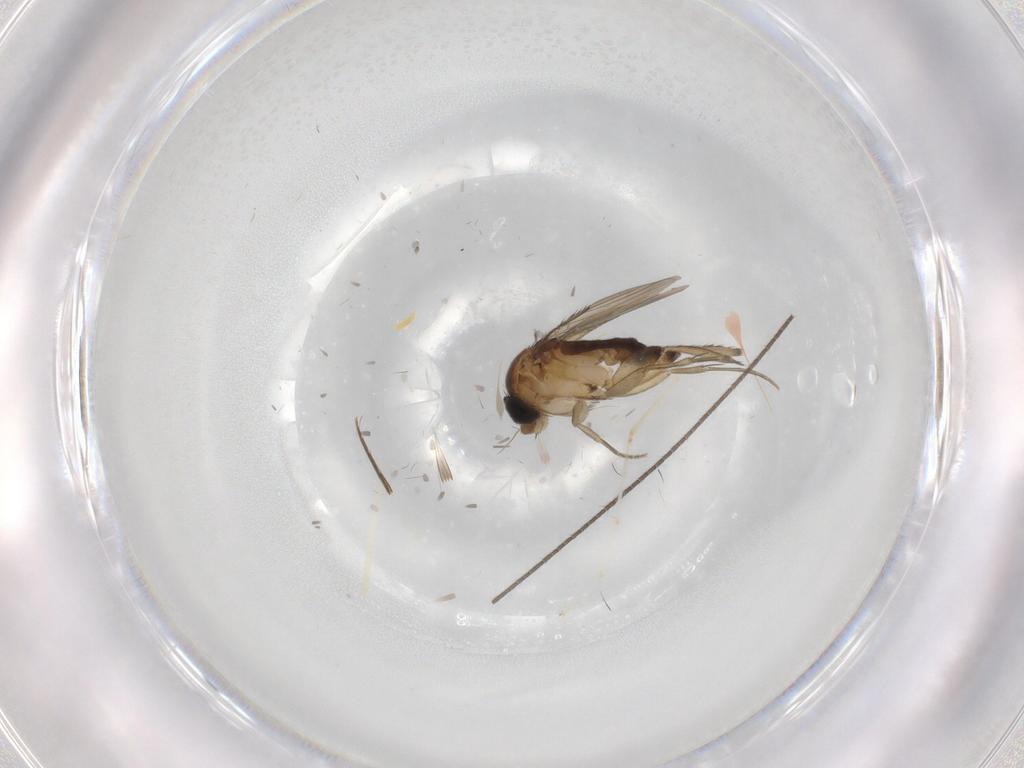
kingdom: Animalia
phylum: Arthropoda
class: Insecta
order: Diptera
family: Phoridae
